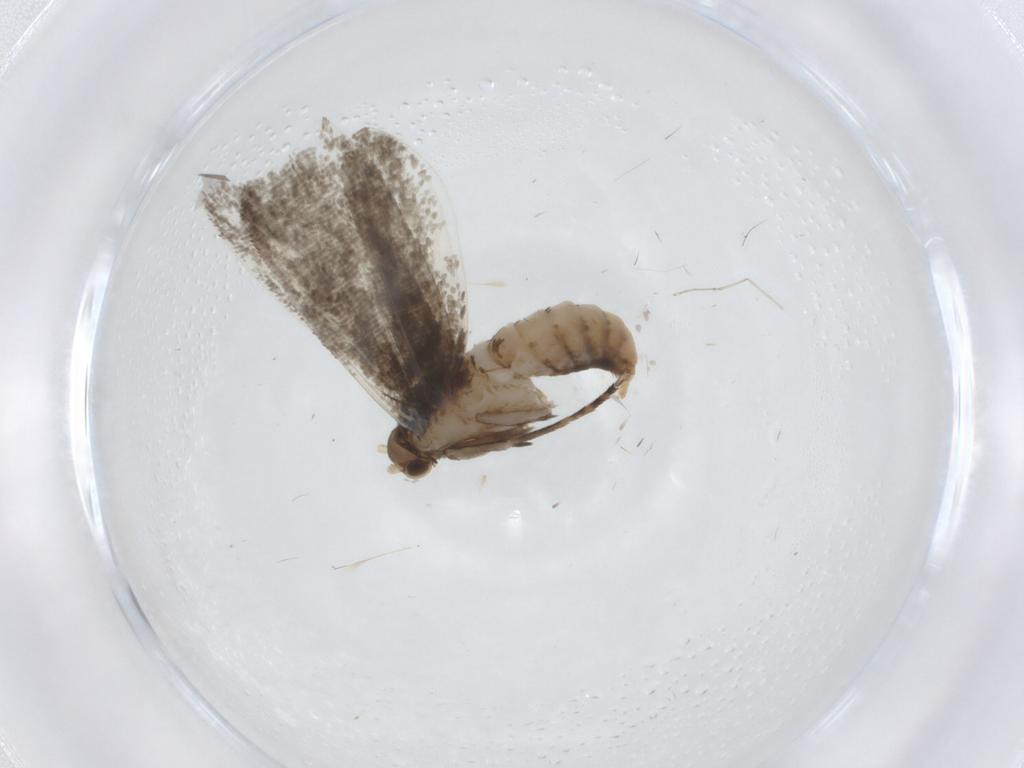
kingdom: Animalia
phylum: Arthropoda
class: Insecta
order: Lepidoptera
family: Tineidae
